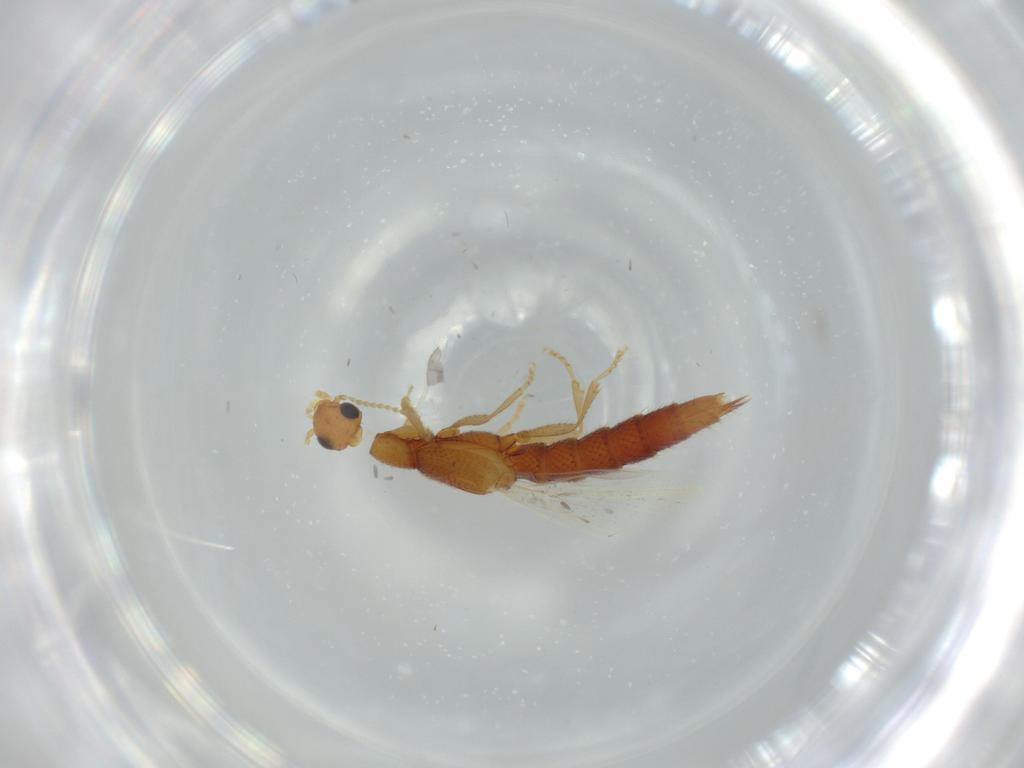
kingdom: Animalia
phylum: Arthropoda
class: Insecta
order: Coleoptera
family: Staphylinidae
